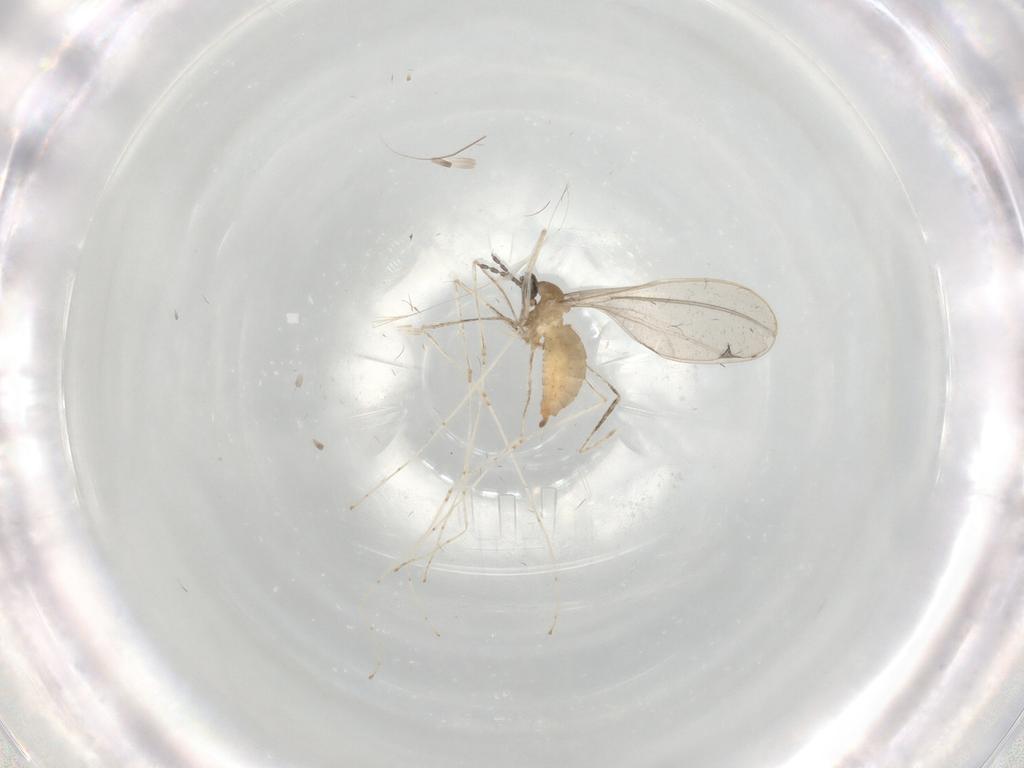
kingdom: Animalia
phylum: Arthropoda
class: Insecta
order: Diptera
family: Cecidomyiidae
